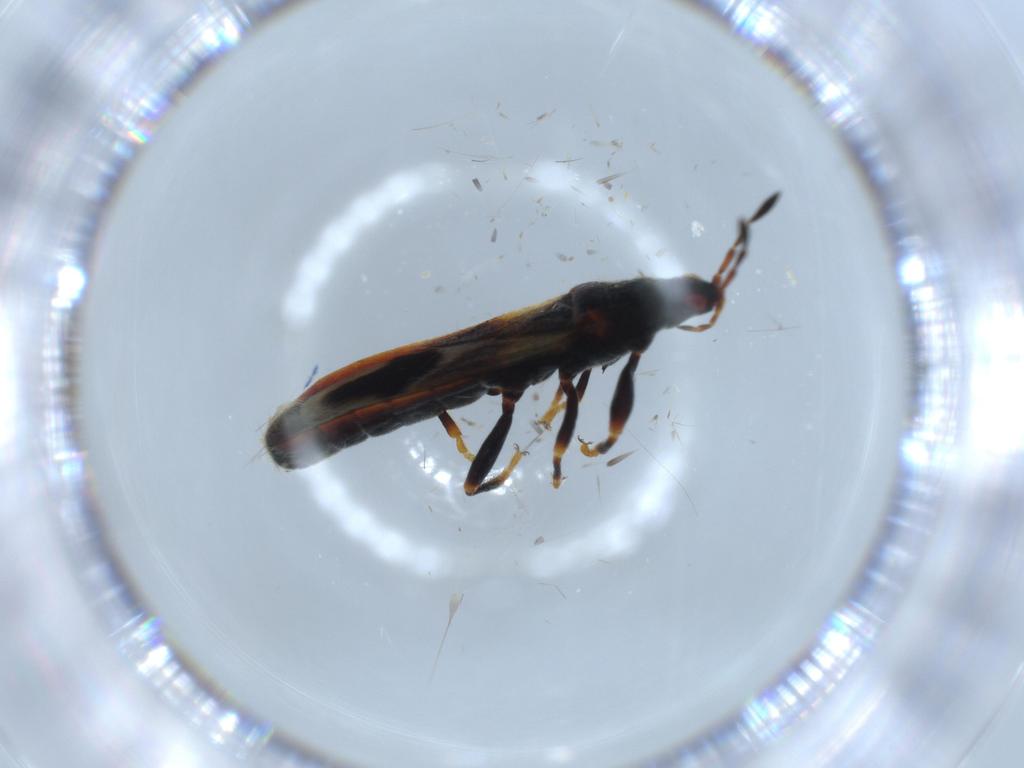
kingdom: Animalia
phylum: Arthropoda
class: Insecta
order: Hemiptera
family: Blissidae
